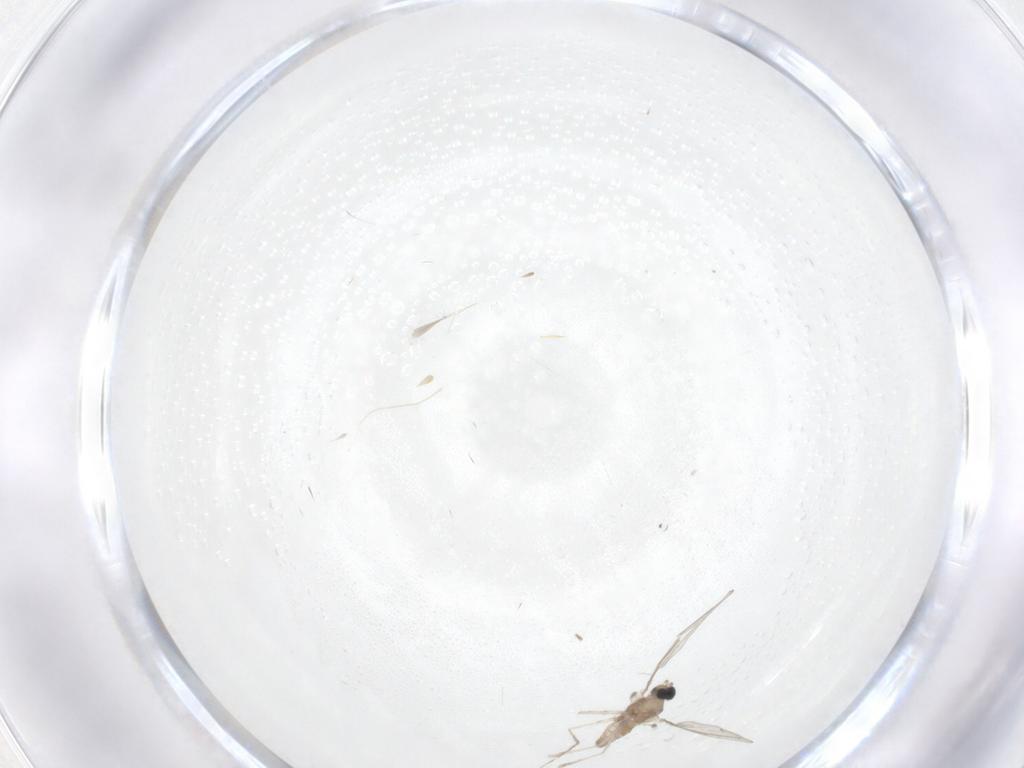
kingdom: Animalia
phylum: Arthropoda
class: Insecta
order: Diptera
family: Cecidomyiidae
